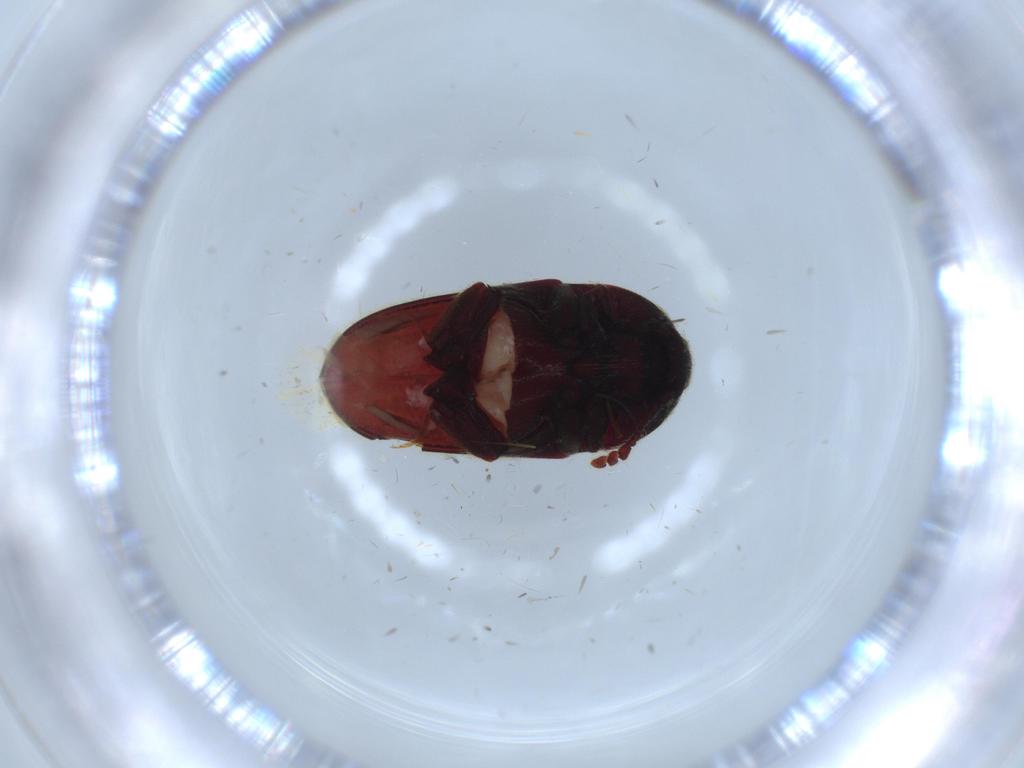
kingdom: Animalia
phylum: Arthropoda
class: Insecta
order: Coleoptera
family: Throscidae
